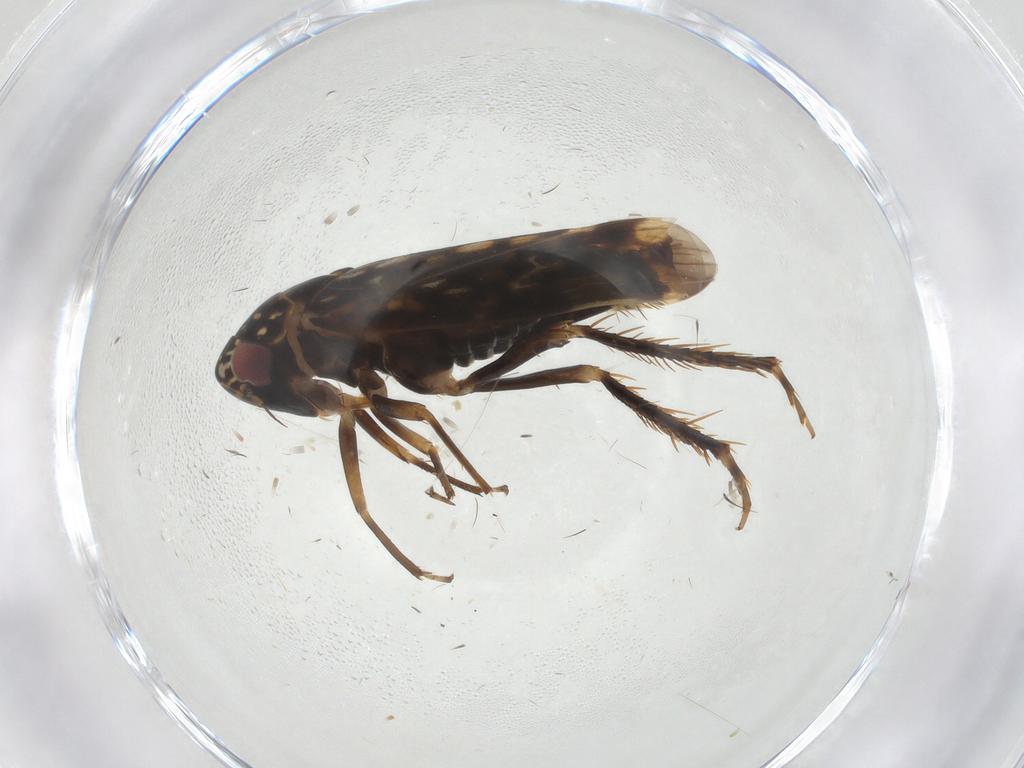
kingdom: Animalia
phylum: Arthropoda
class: Insecta
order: Hemiptera
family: Cicadellidae
